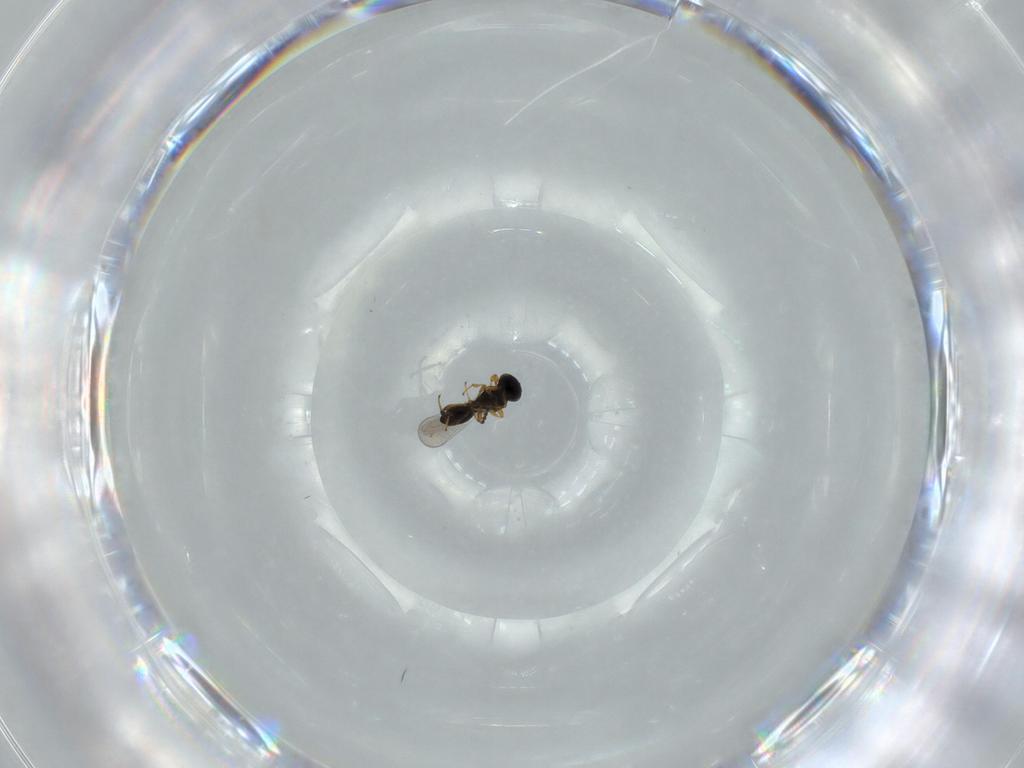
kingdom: Animalia
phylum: Arthropoda
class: Insecta
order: Hymenoptera
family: Platygastridae
